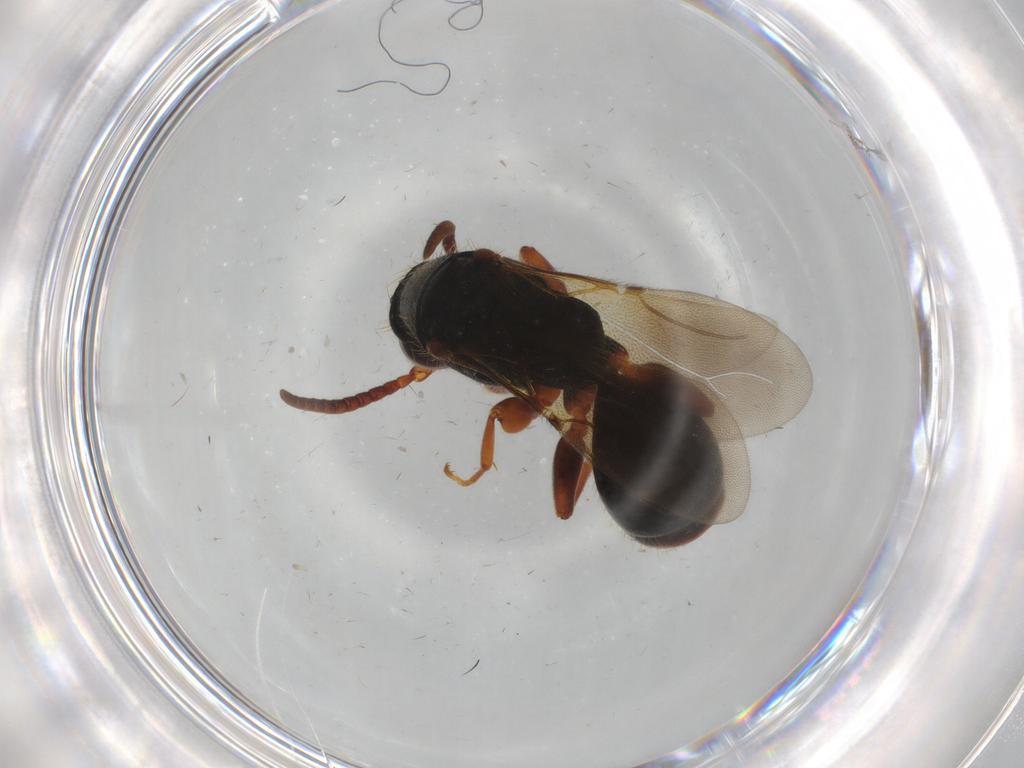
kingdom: Animalia
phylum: Arthropoda
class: Insecta
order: Hymenoptera
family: Bethylidae
